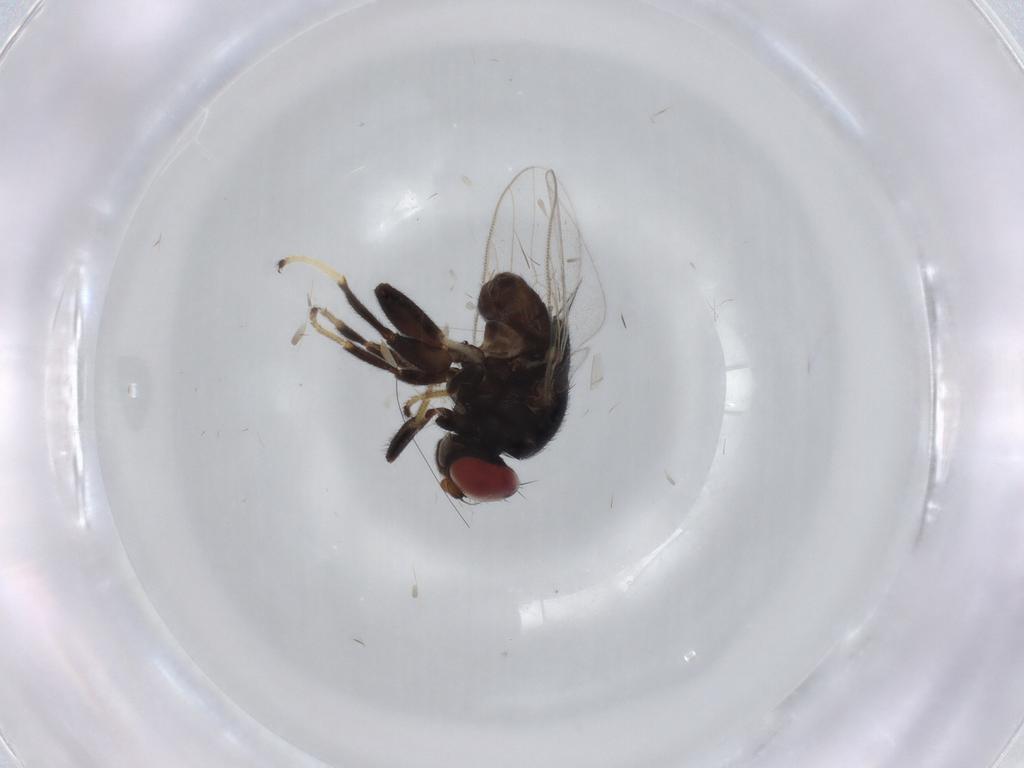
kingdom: Animalia
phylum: Arthropoda
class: Insecta
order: Diptera
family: Chloropidae
